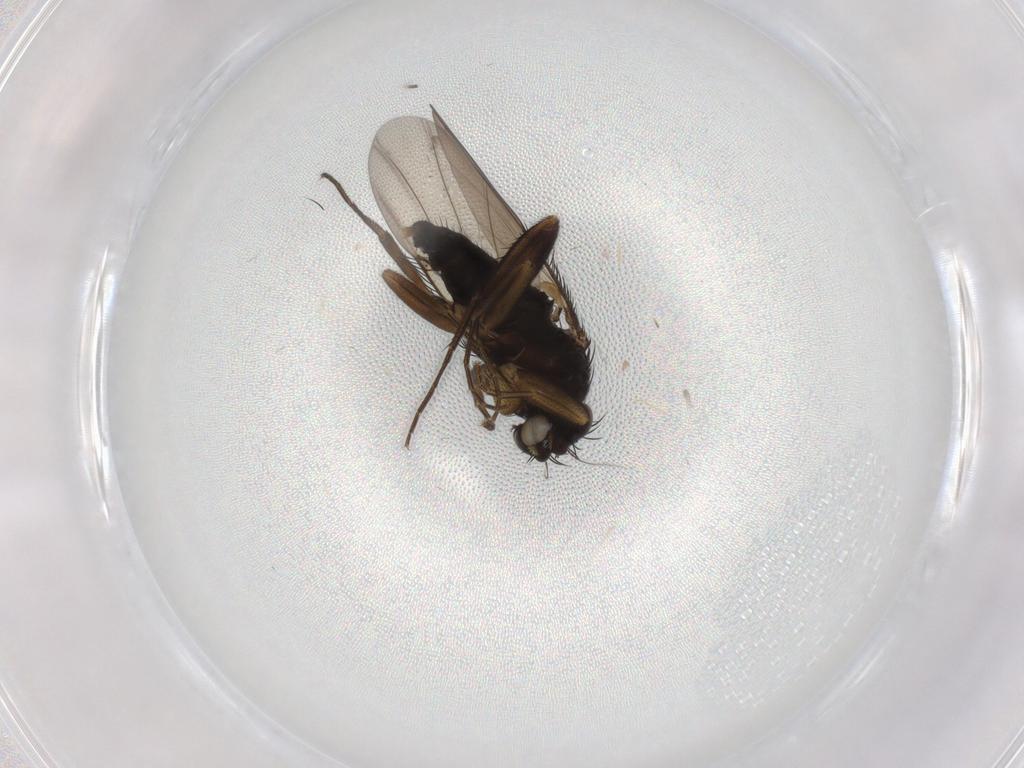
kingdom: Animalia
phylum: Arthropoda
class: Insecta
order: Diptera
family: Phoridae
